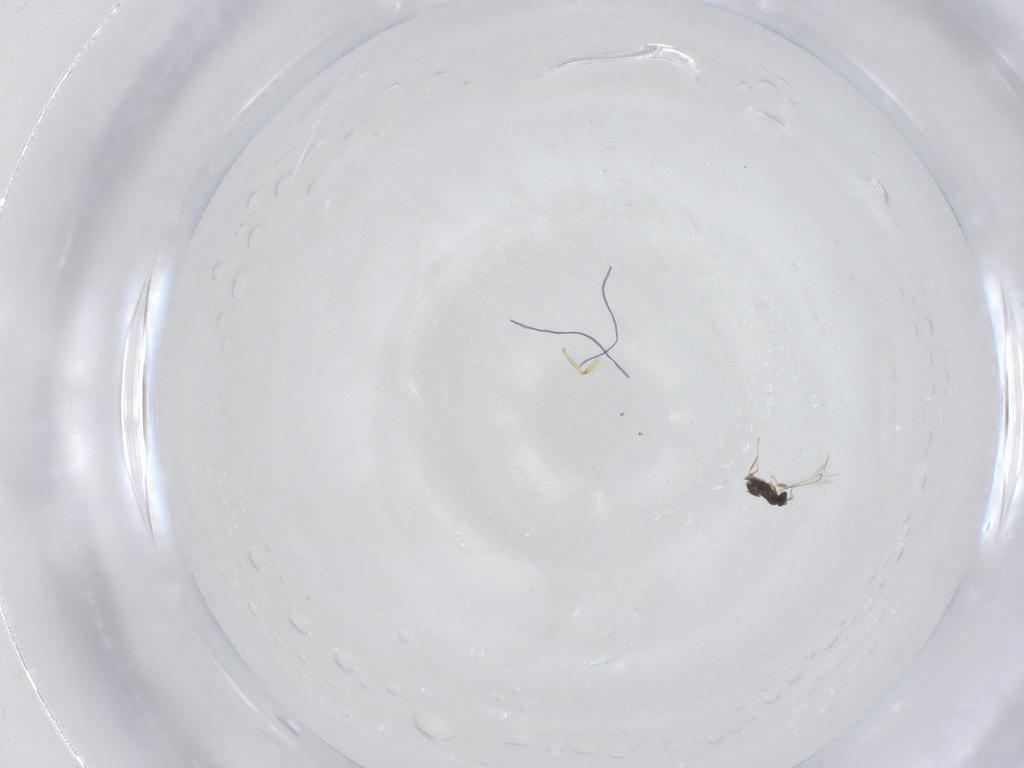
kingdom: Animalia
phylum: Arthropoda
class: Insecta
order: Hymenoptera
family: Mymaridae
